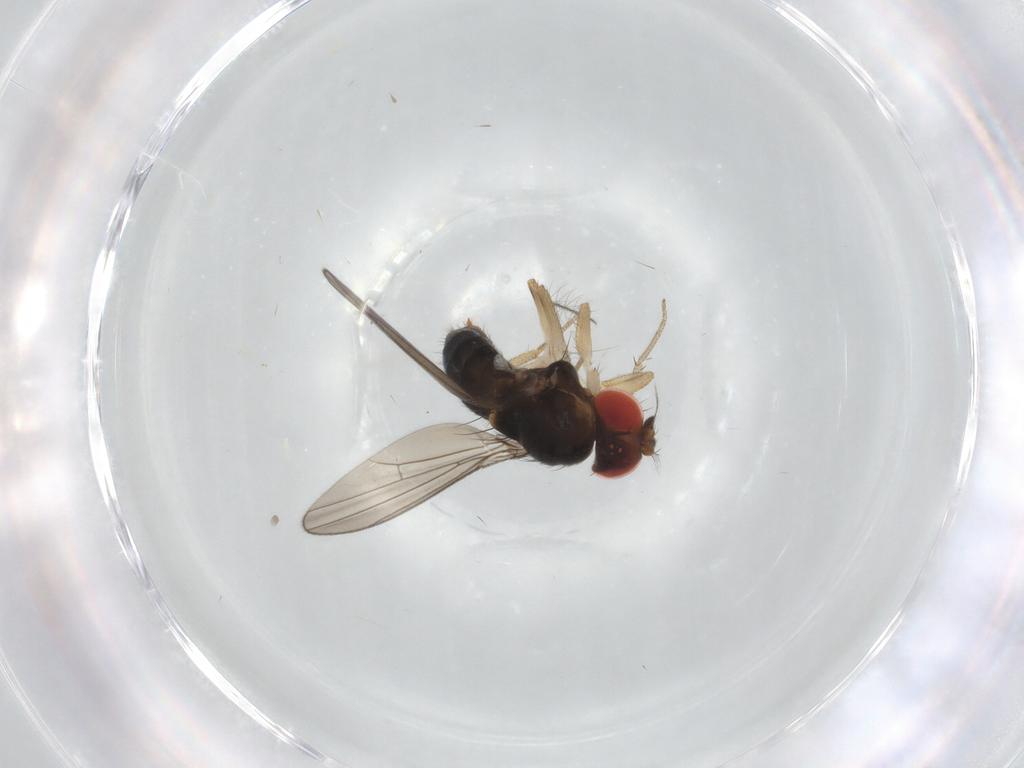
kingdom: Animalia
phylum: Arthropoda
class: Insecta
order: Diptera
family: Drosophilidae
